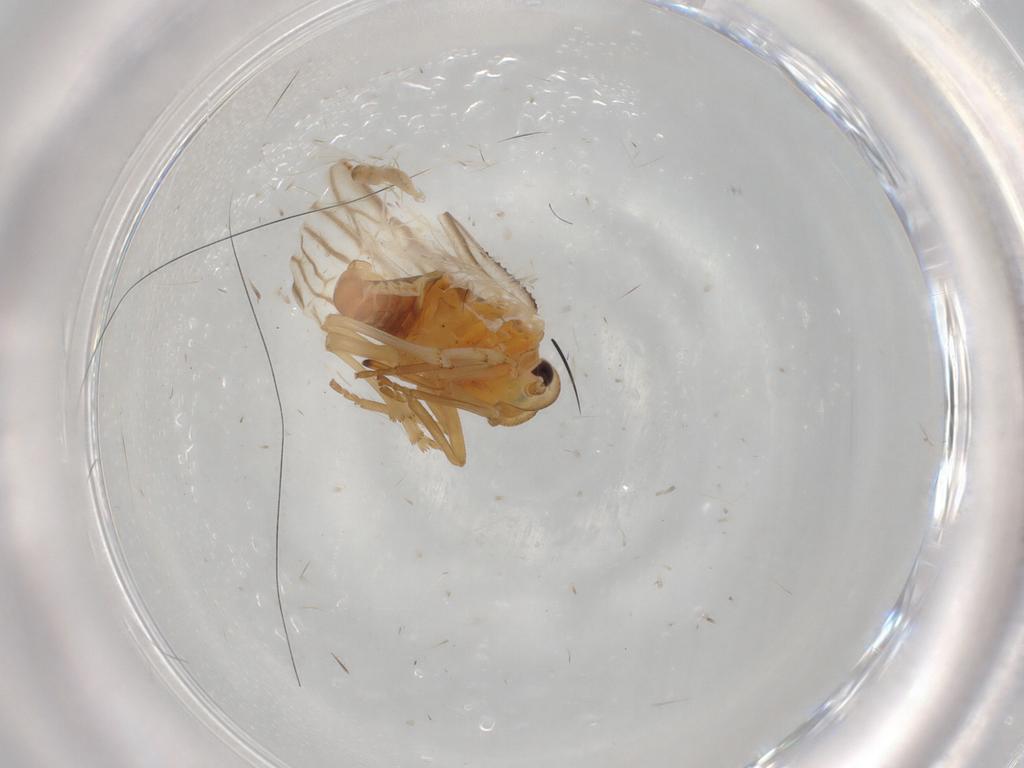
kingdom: Animalia
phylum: Arthropoda
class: Insecta
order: Hemiptera
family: Meenoplidae
